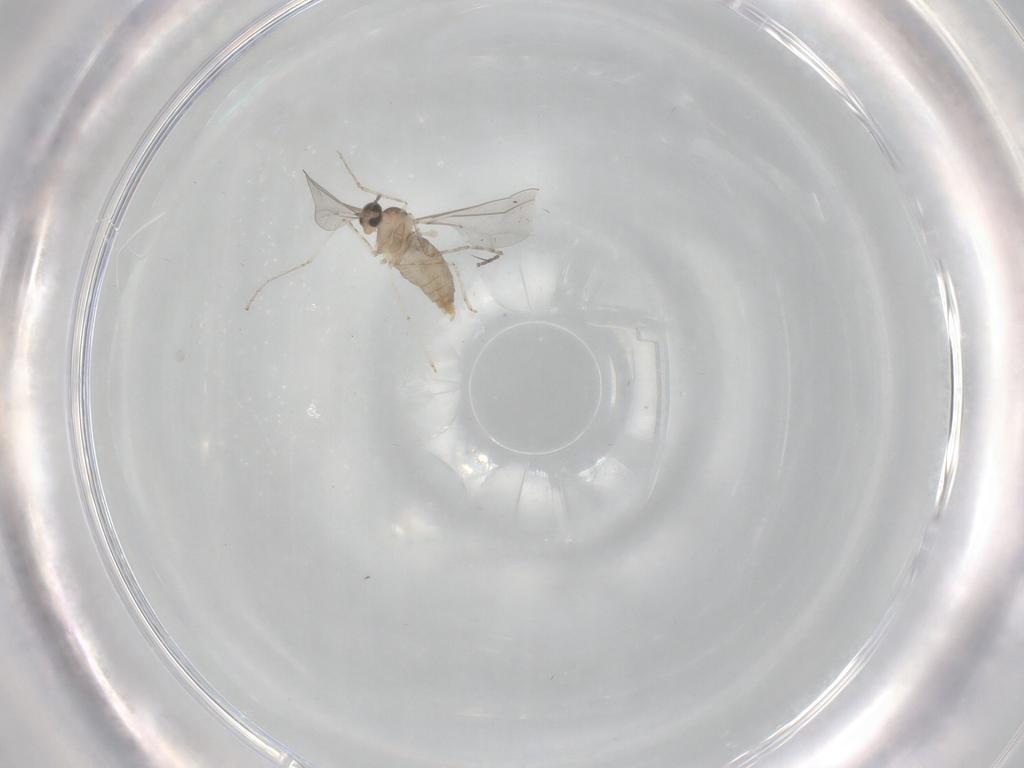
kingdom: Animalia
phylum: Arthropoda
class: Insecta
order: Diptera
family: Cecidomyiidae
